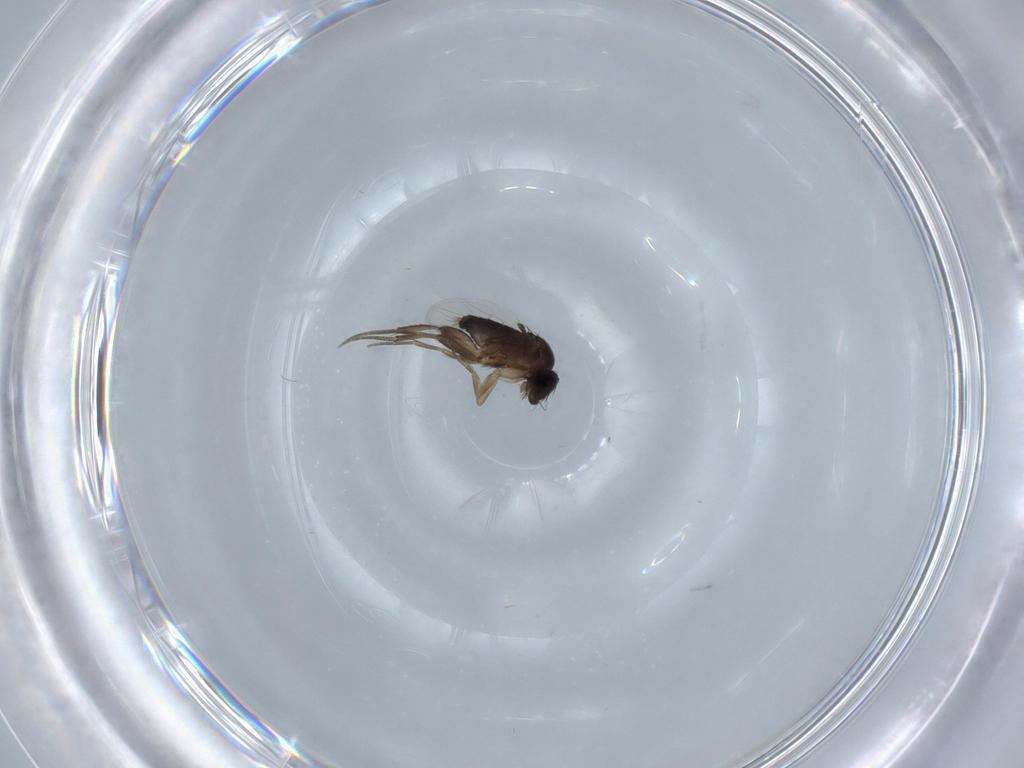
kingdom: Animalia
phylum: Arthropoda
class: Insecta
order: Diptera
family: Phoridae
